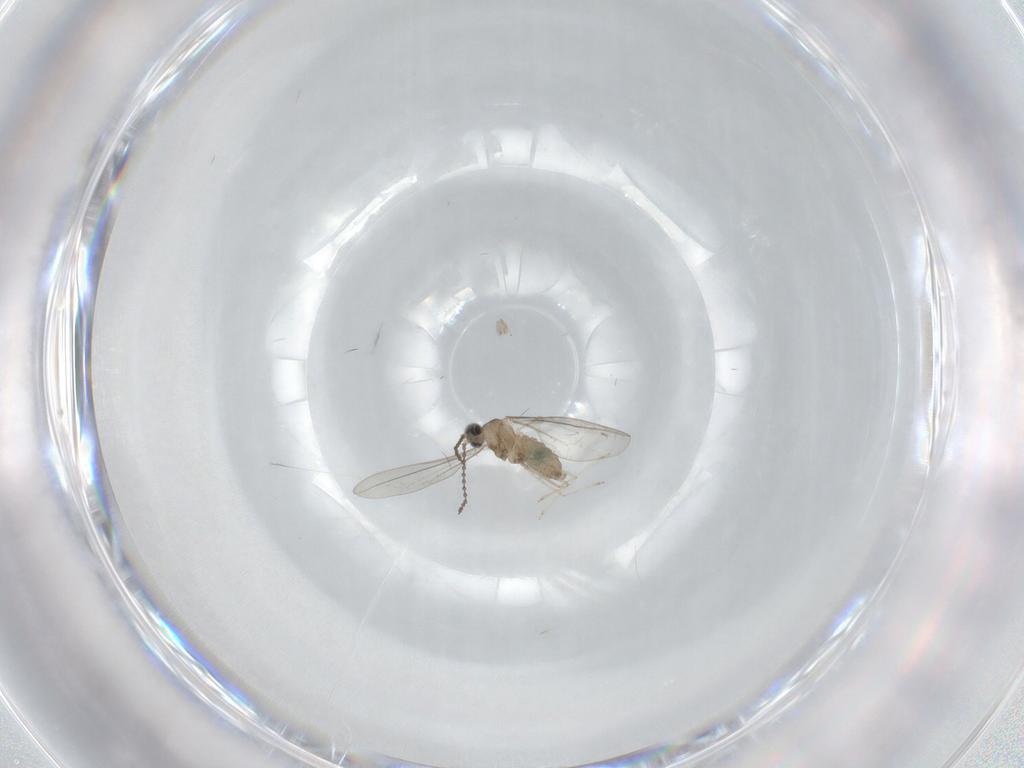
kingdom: Animalia
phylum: Arthropoda
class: Insecta
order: Diptera
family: Cecidomyiidae
